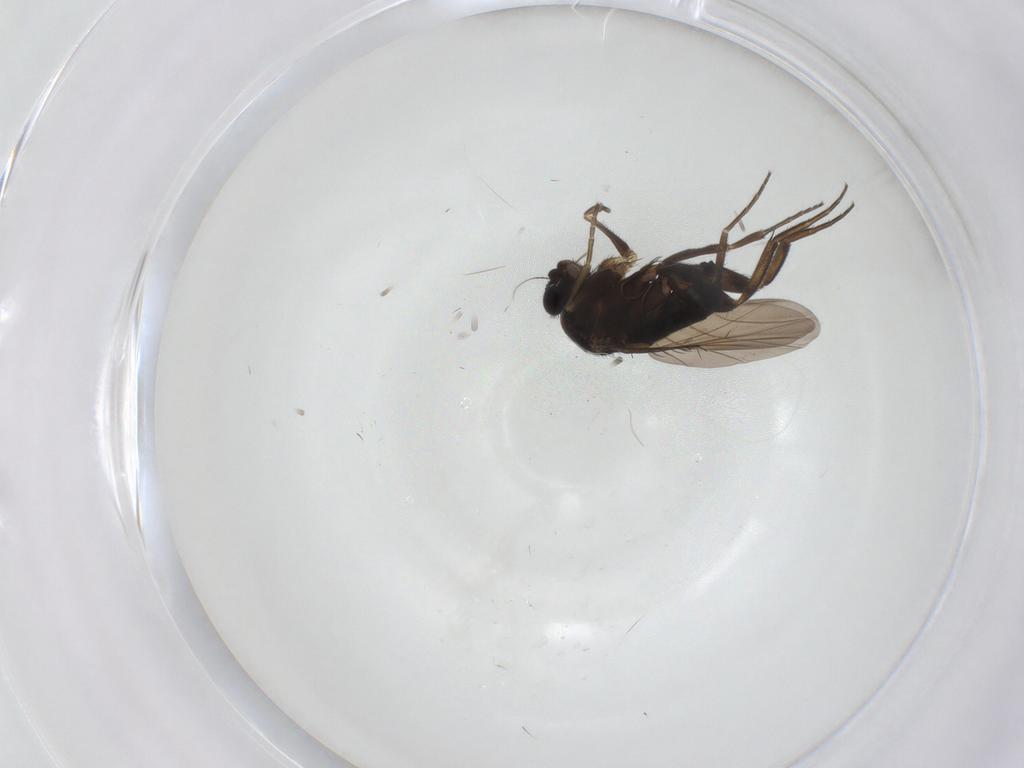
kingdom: Animalia
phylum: Arthropoda
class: Insecta
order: Diptera
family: Phoridae
